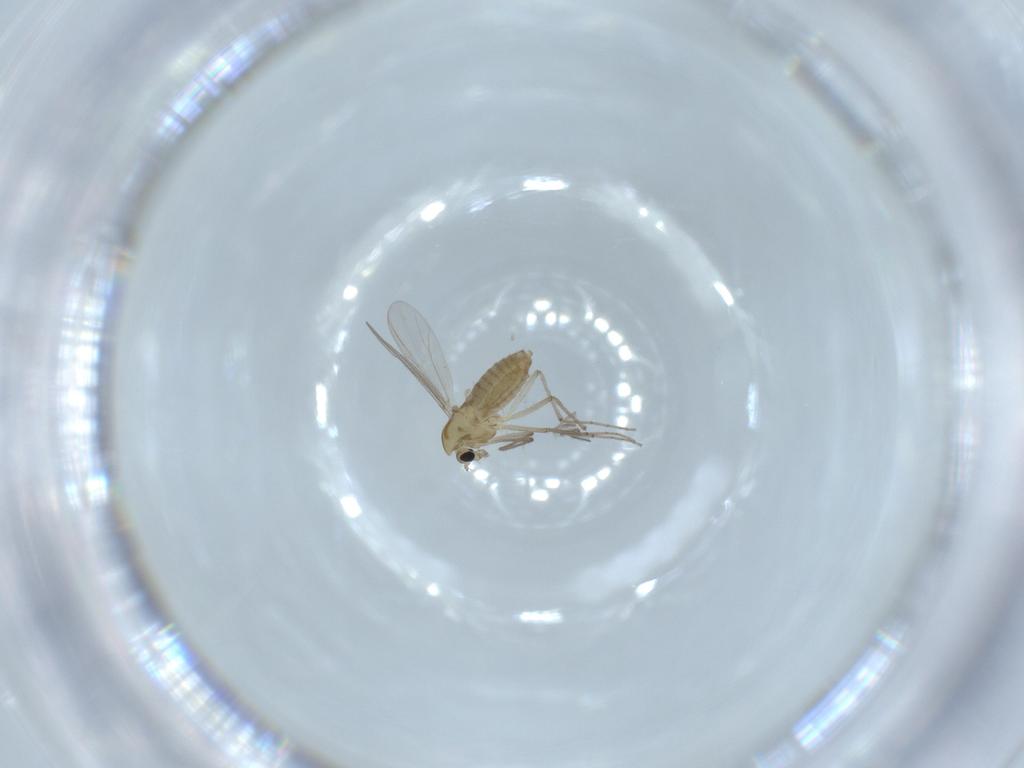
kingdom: Animalia
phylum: Arthropoda
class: Insecta
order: Diptera
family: Chironomidae
